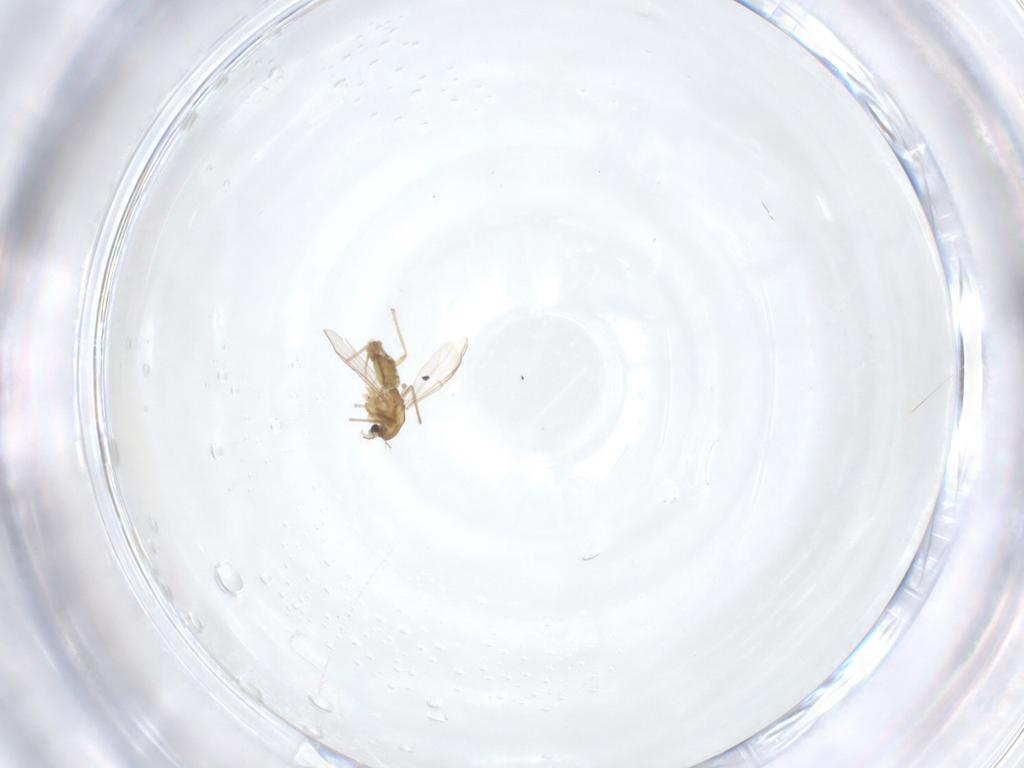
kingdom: Animalia
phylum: Arthropoda
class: Insecta
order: Diptera
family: Chironomidae
